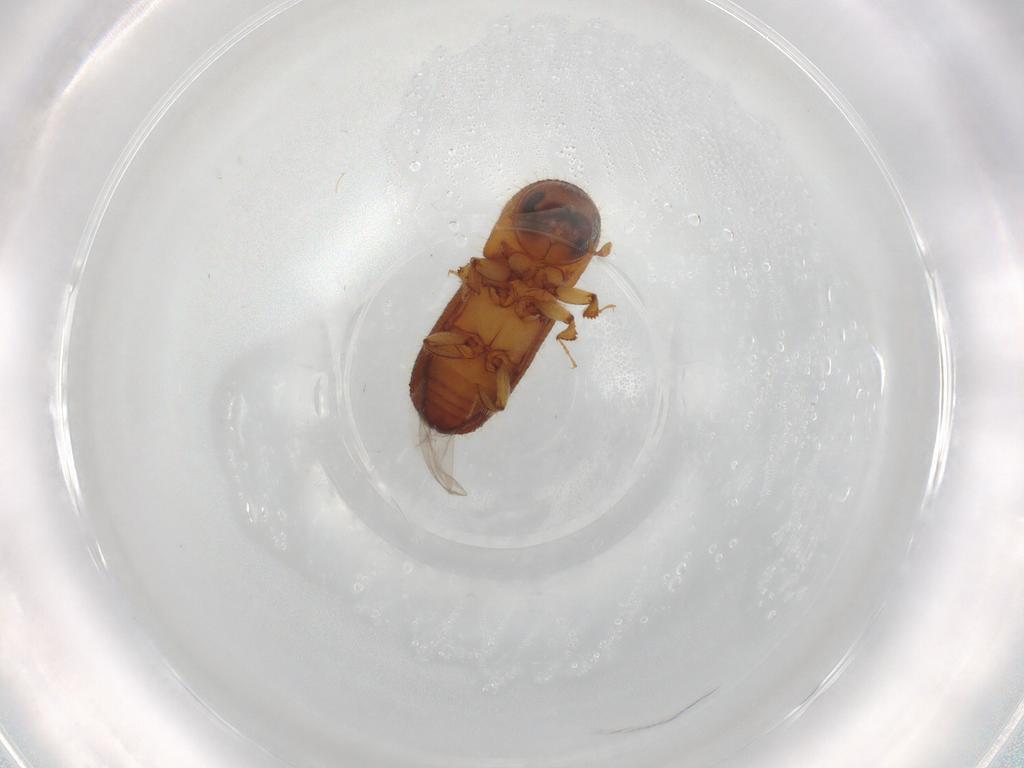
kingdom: Animalia
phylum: Arthropoda
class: Insecta
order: Coleoptera
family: Curculionidae
